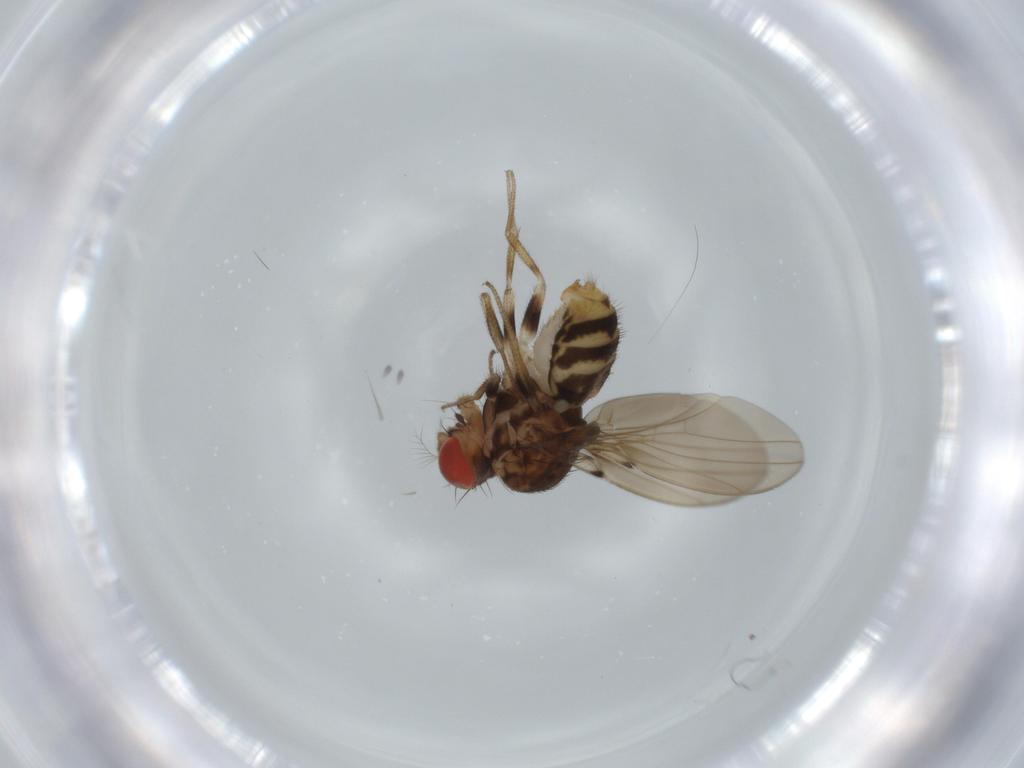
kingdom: Animalia
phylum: Arthropoda
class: Insecta
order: Diptera
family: Drosophilidae
